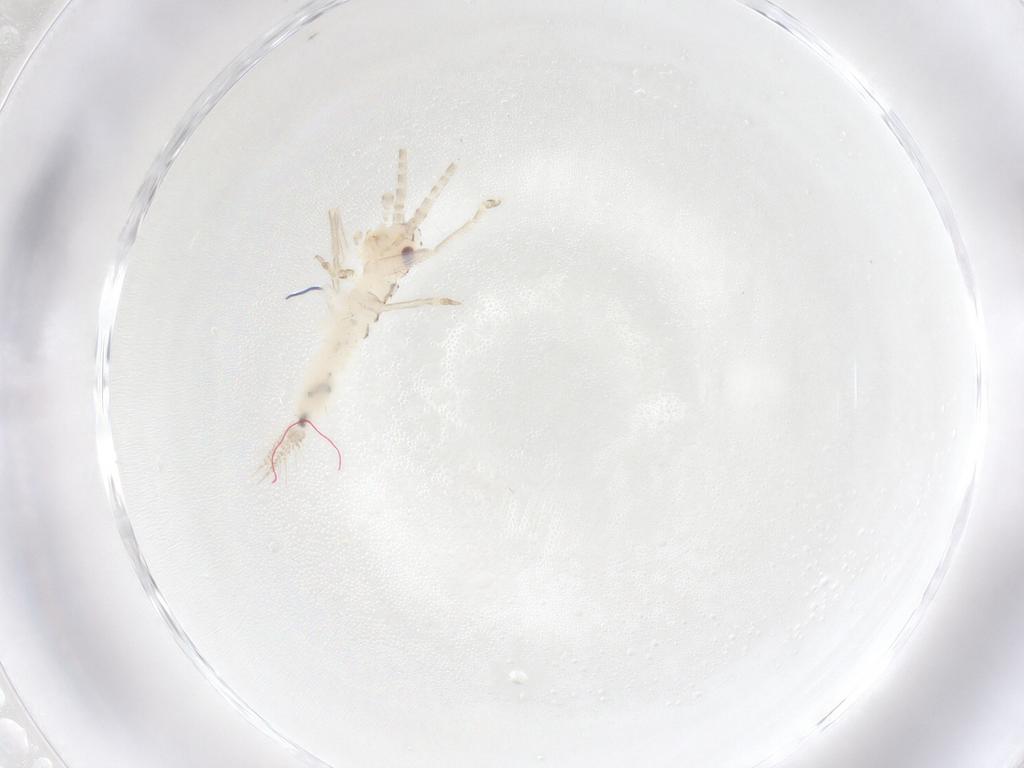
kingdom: Animalia
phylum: Arthropoda
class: Insecta
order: Orthoptera
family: Trigonidiidae
